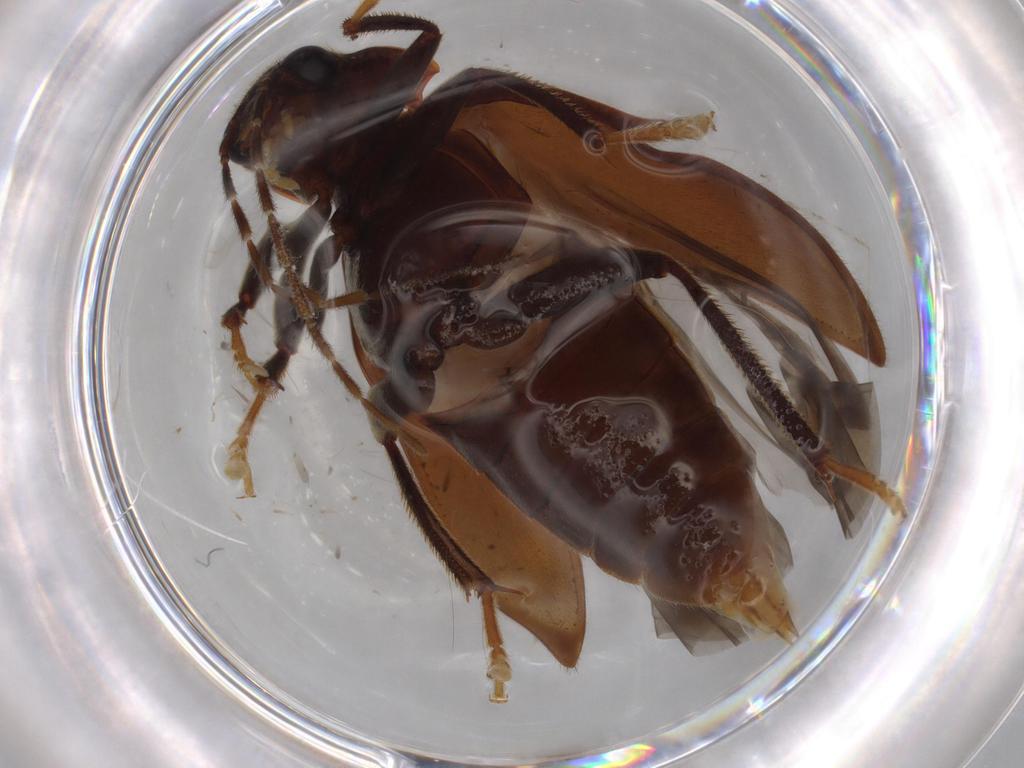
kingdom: Animalia
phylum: Arthropoda
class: Insecta
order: Coleoptera
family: Ptilodactylidae
